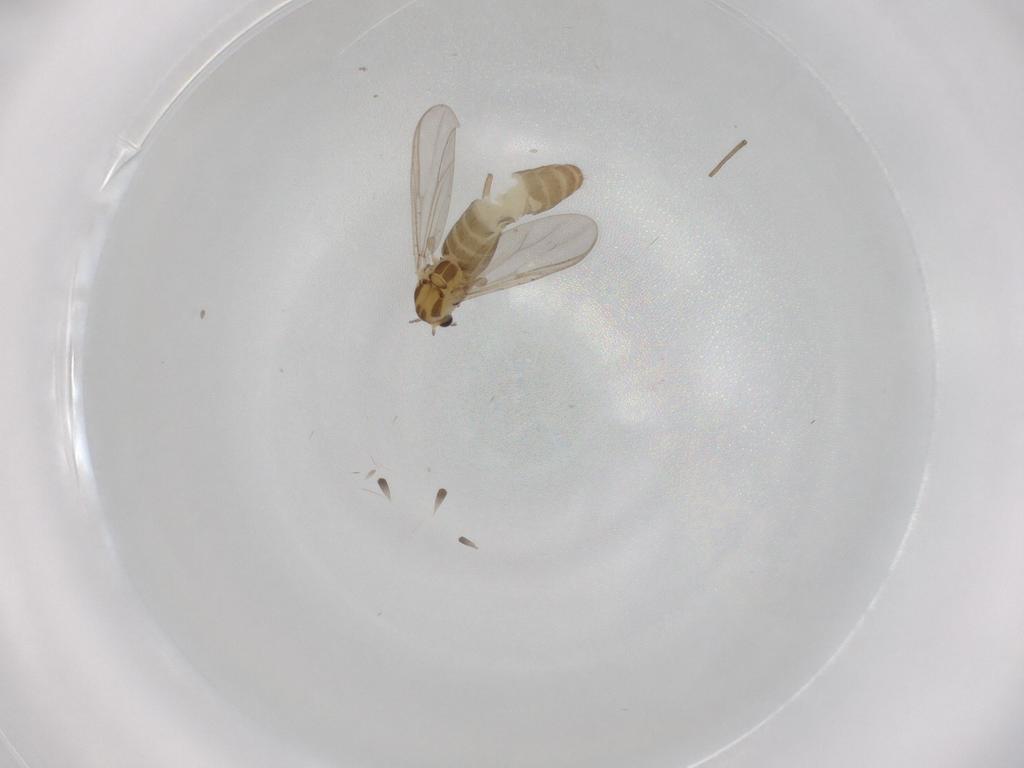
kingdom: Animalia
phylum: Arthropoda
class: Insecta
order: Diptera
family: Chironomidae
